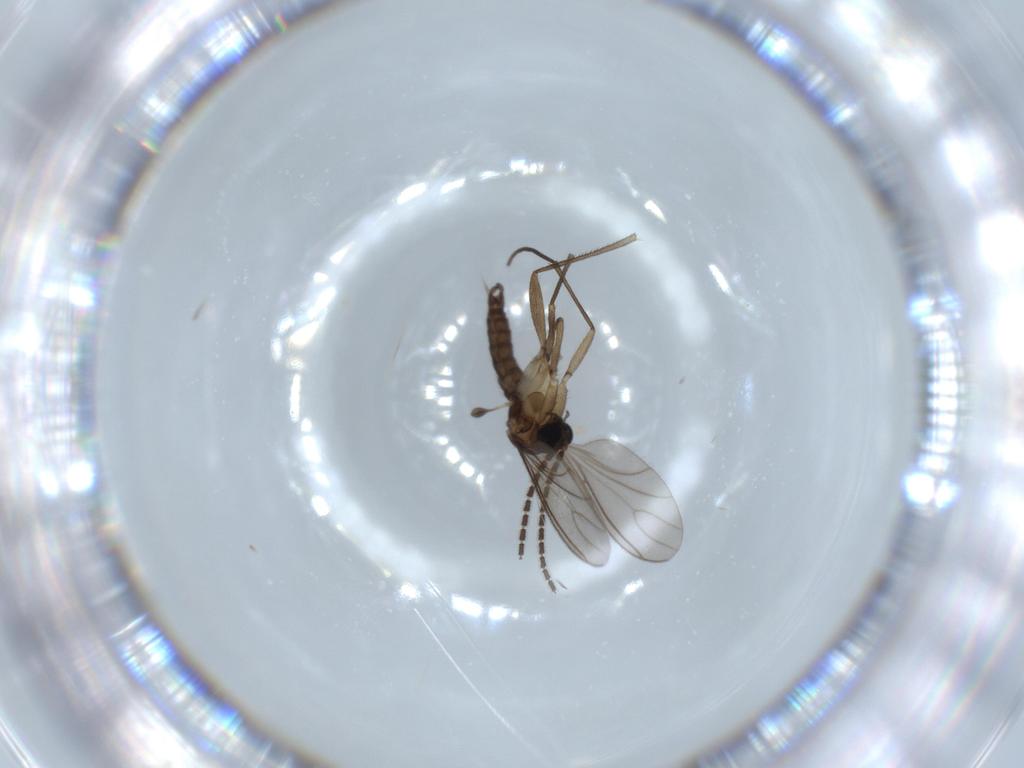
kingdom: Animalia
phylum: Arthropoda
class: Insecta
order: Diptera
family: Sciaridae
